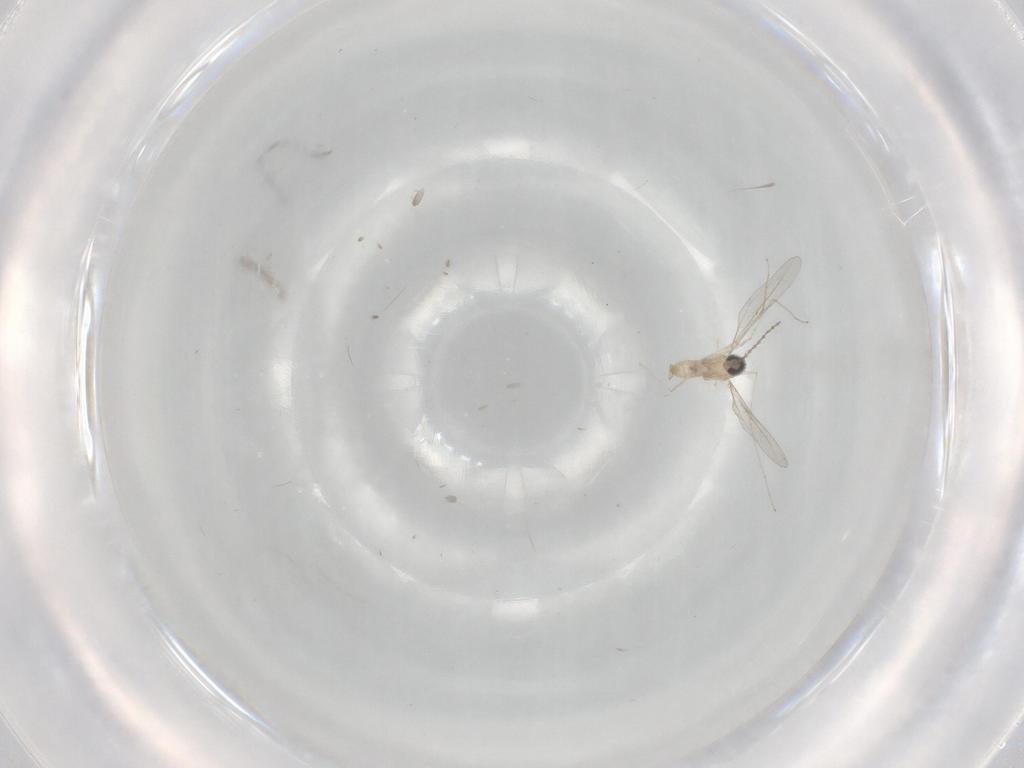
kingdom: Animalia
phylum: Arthropoda
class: Insecta
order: Diptera
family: Cecidomyiidae
